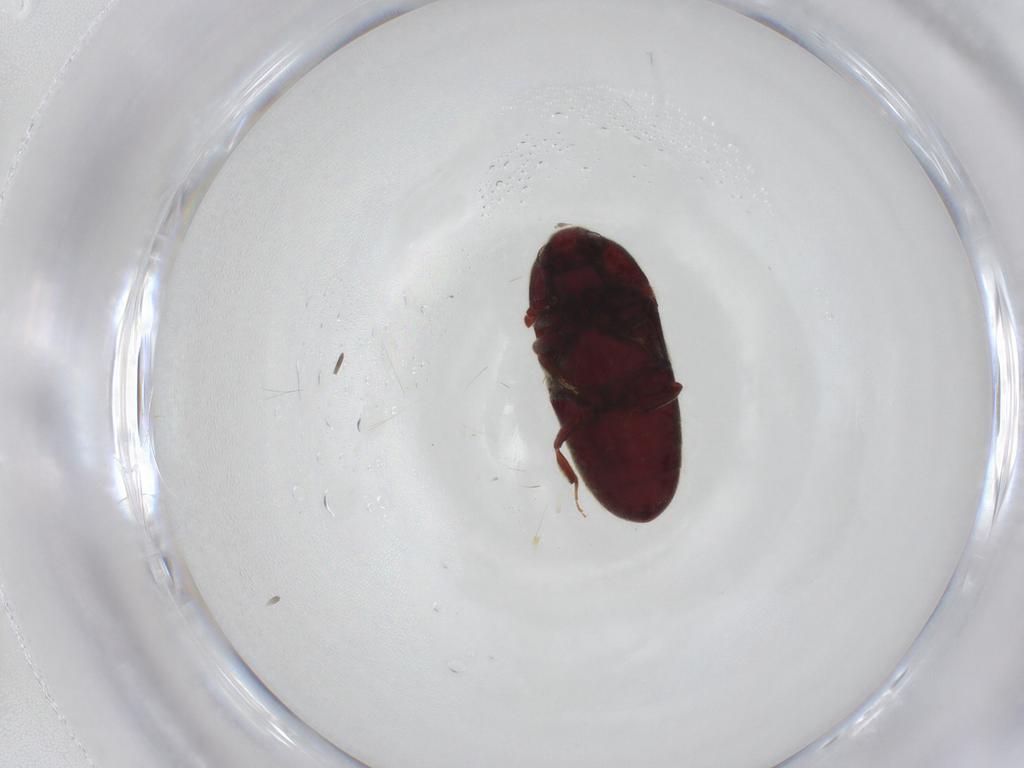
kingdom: Animalia
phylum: Arthropoda
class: Insecta
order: Coleoptera
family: Throscidae
